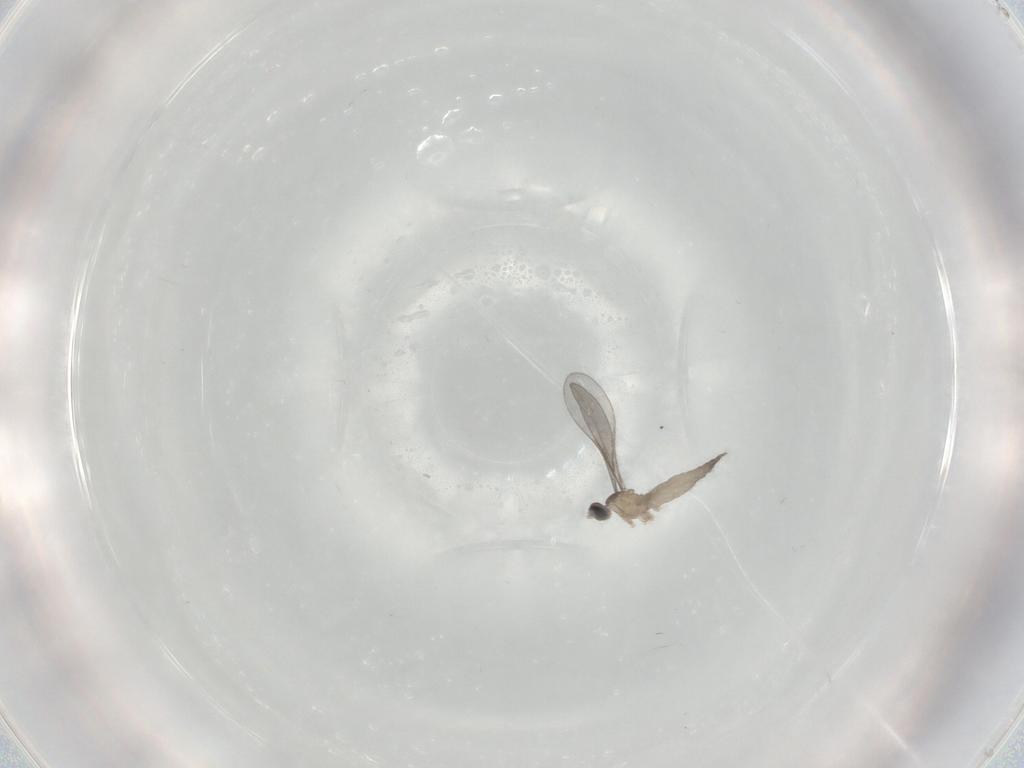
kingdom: Animalia
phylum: Arthropoda
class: Insecta
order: Diptera
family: Cecidomyiidae
